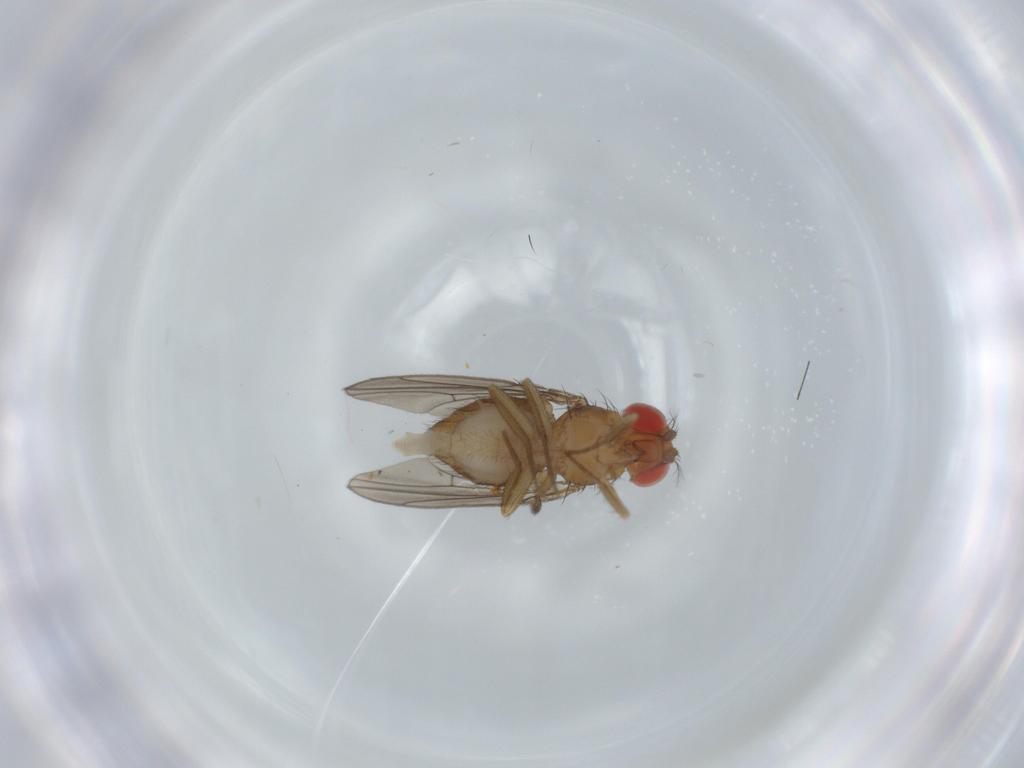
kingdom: Animalia
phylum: Arthropoda
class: Insecta
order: Diptera
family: Drosophilidae
